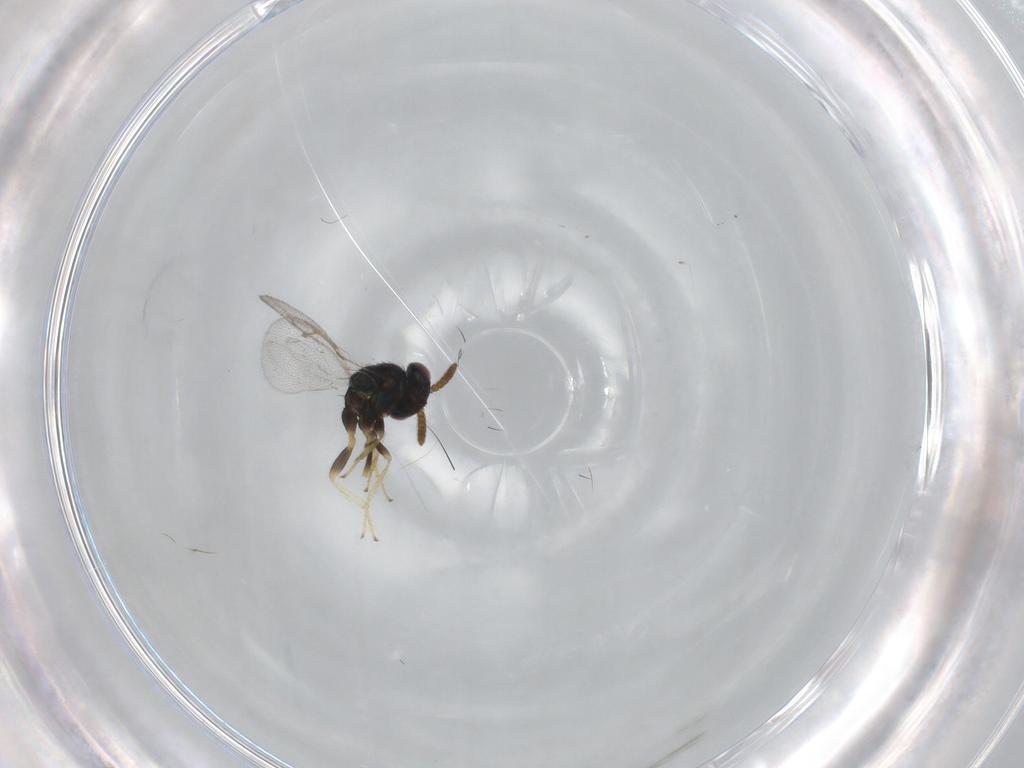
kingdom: Animalia
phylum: Arthropoda
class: Insecta
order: Hymenoptera
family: Pirenidae
